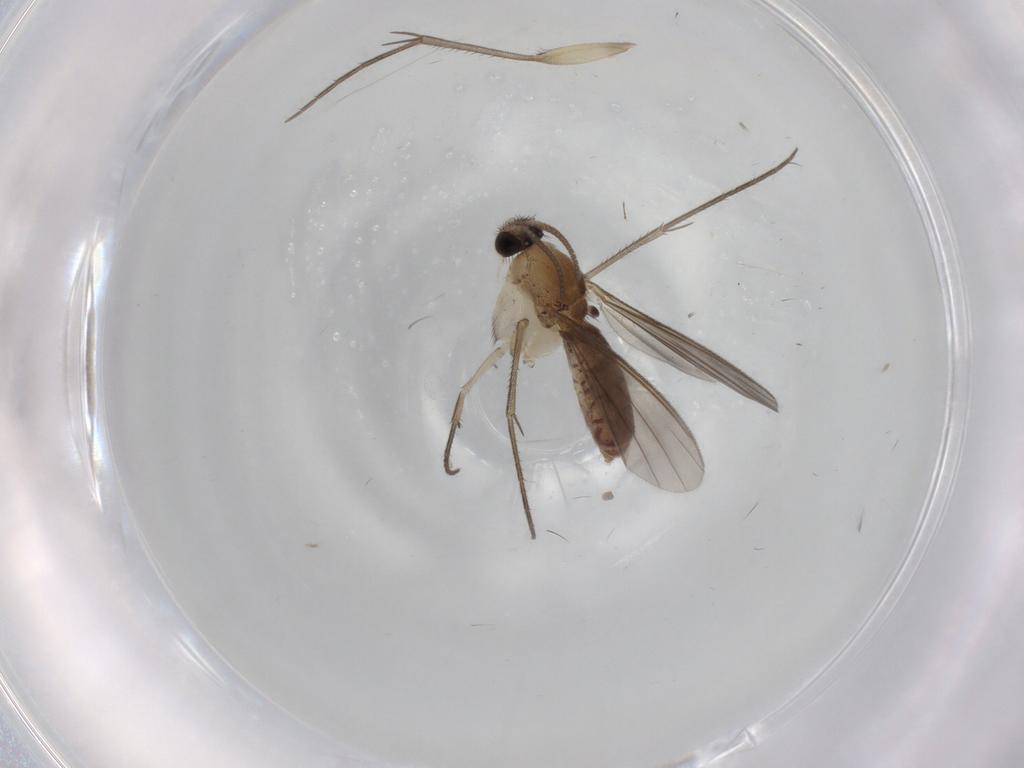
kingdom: Animalia
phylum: Arthropoda
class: Insecta
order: Diptera
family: Mycetophilidae
